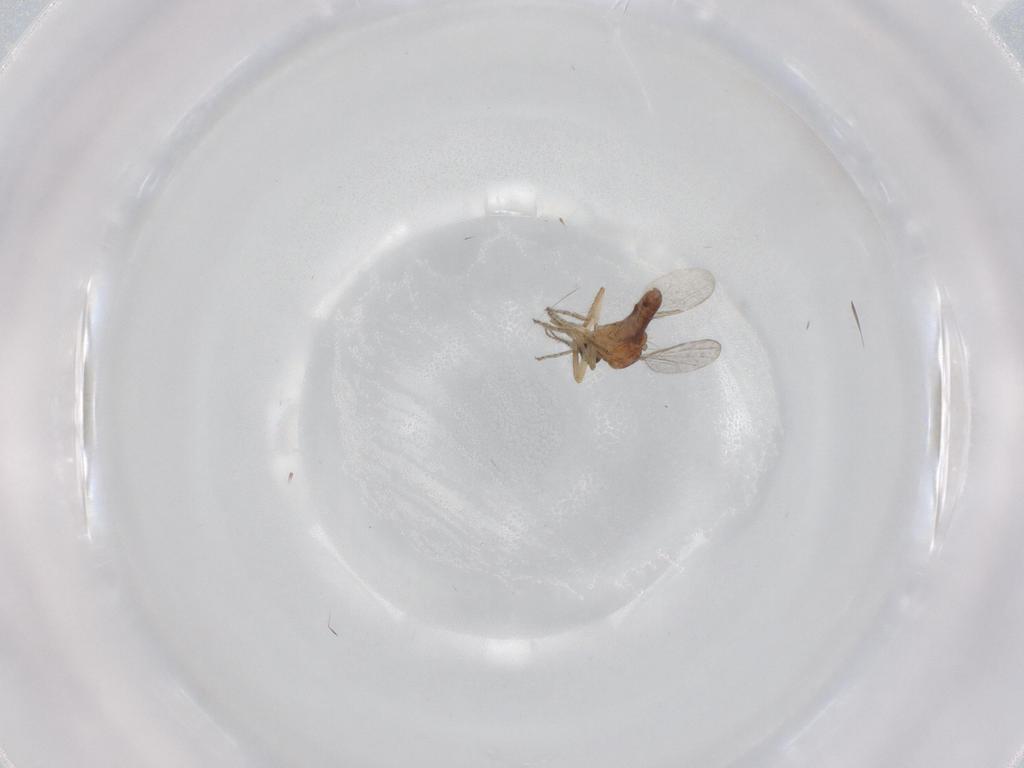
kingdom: Animalia
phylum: Arthropoda
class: Insecta
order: Diptera
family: Ceratopogonidae
